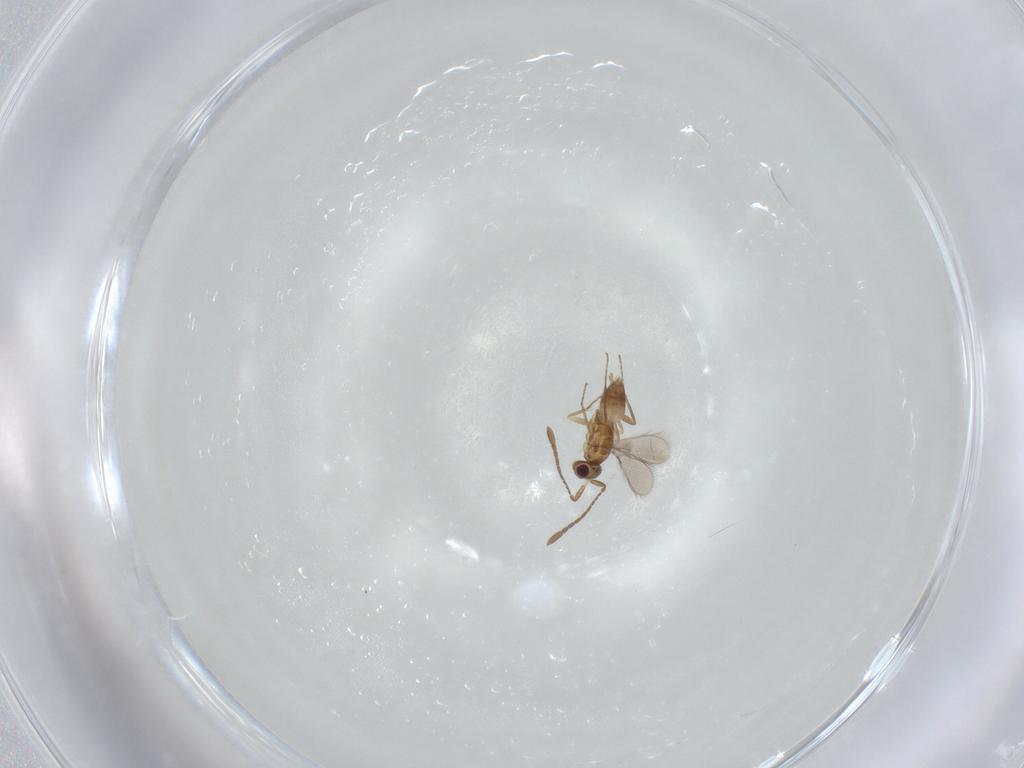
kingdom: Animalia
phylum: Arthropoda
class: Insecta
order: Hymenoptera
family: Mymaridae
